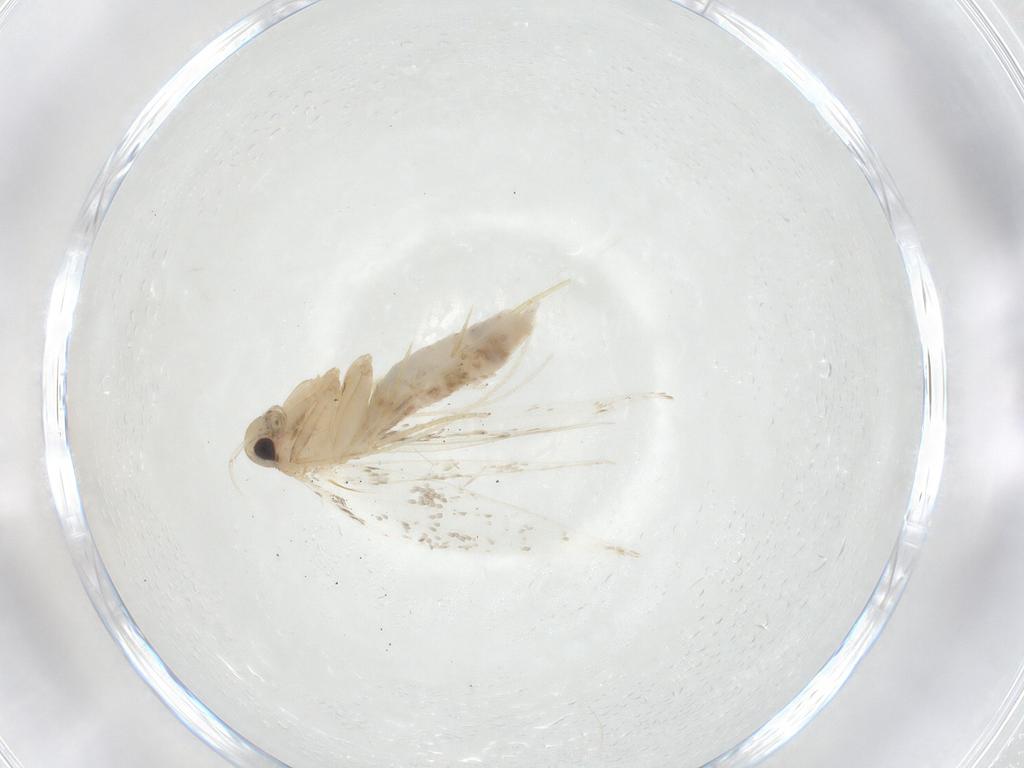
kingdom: Animalia
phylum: Arthropoda
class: Insecta
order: Lepidoptera
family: Cosmopterigidae
